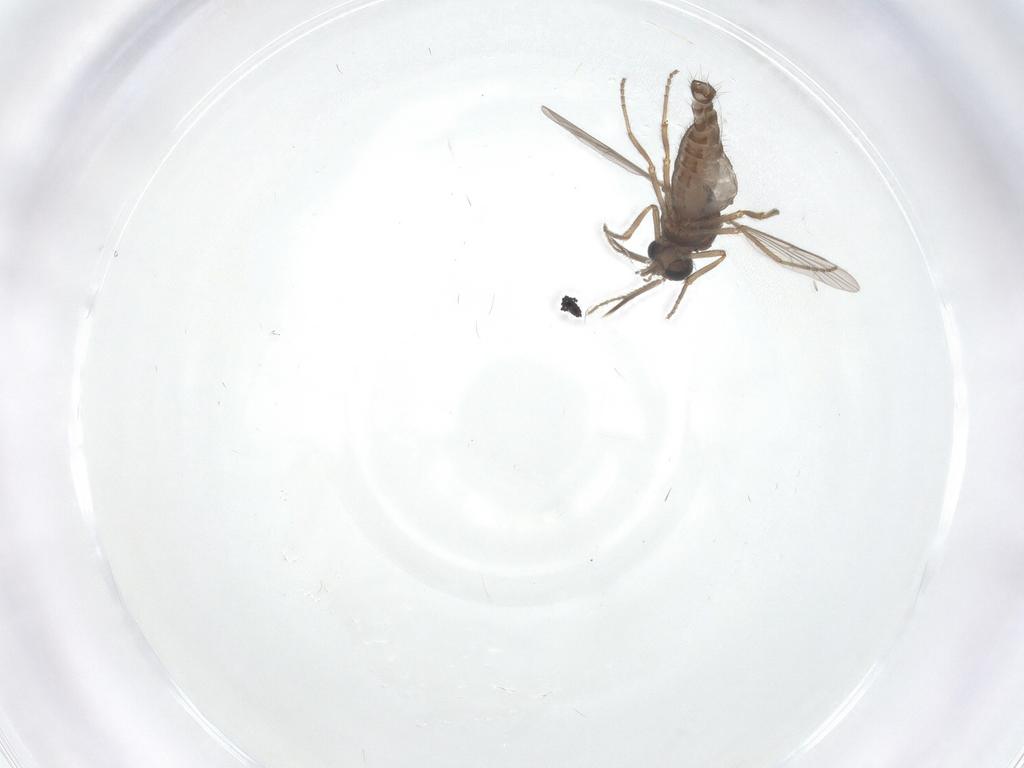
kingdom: Animalia
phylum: Arthropoda
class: Insecta
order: Diptera
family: Ceratopogonidae
